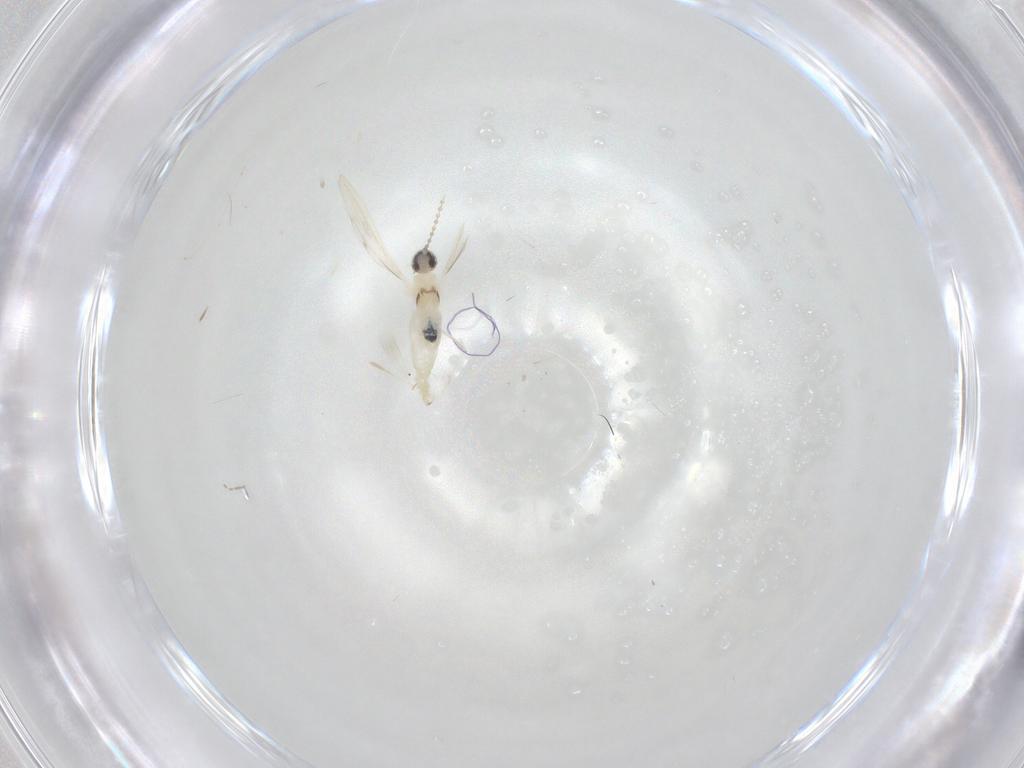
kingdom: Animalia
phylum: Arthropoda
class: Insecta
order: Diptera
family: Cecidomyiidae
